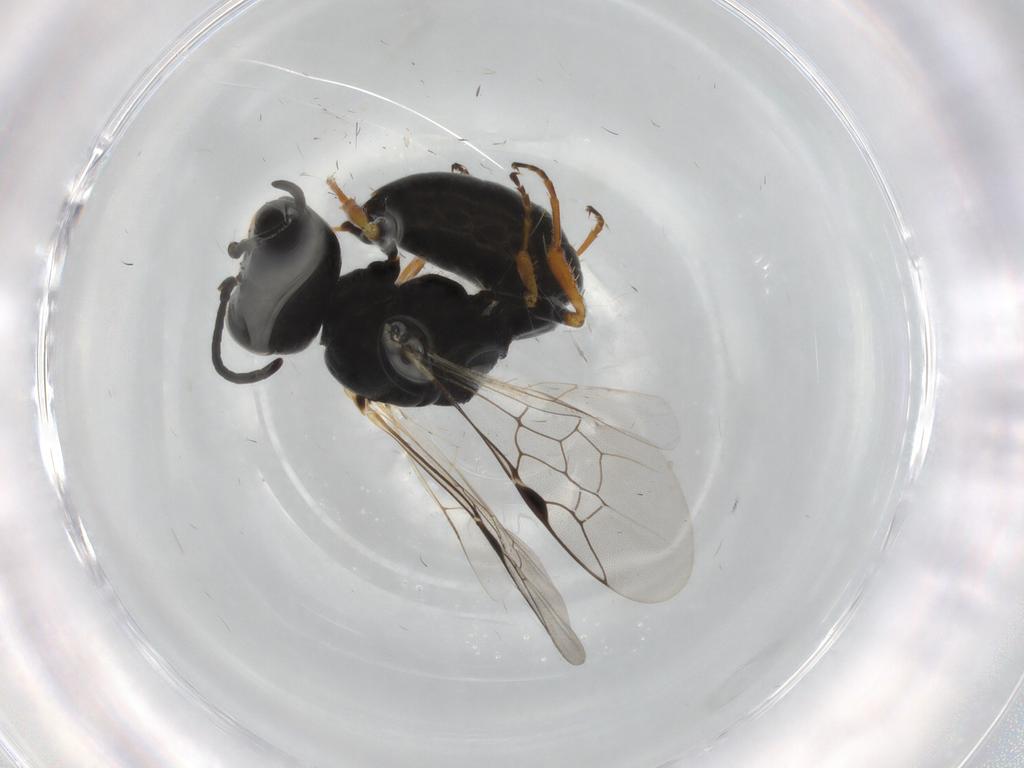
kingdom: Animalia
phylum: Arthropoda
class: Insecta
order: Hymenoptera
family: Pemphredonidae
